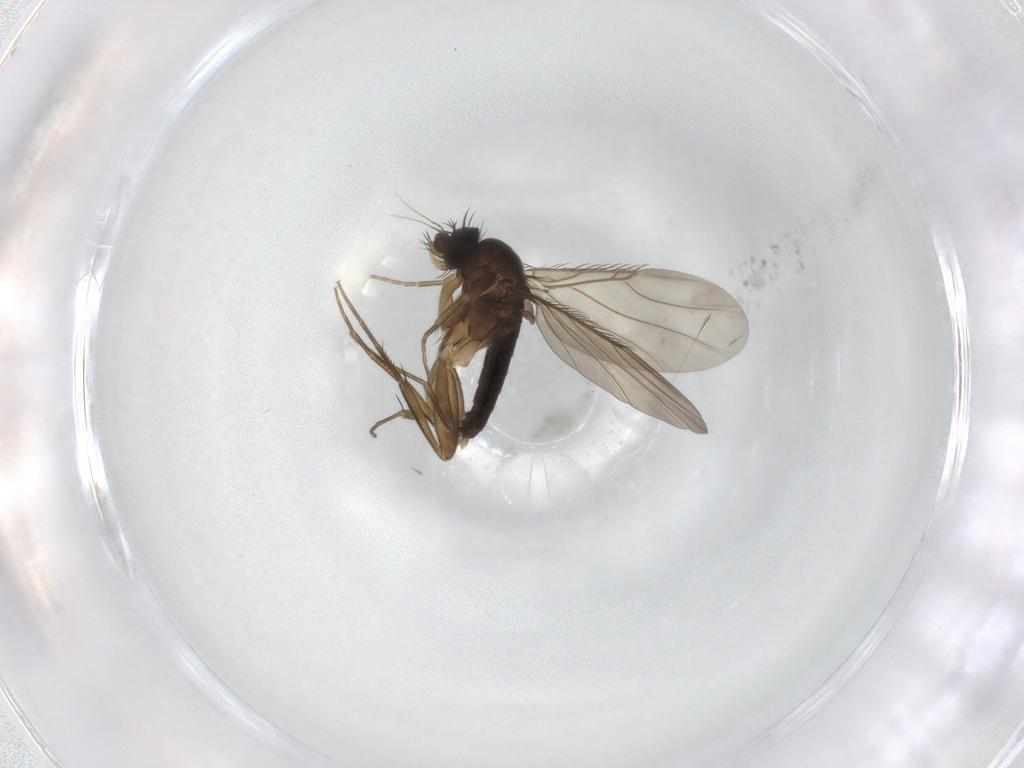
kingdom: Animalia
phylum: Arthropoda
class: Insecta
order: Diptera
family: Phoridae
